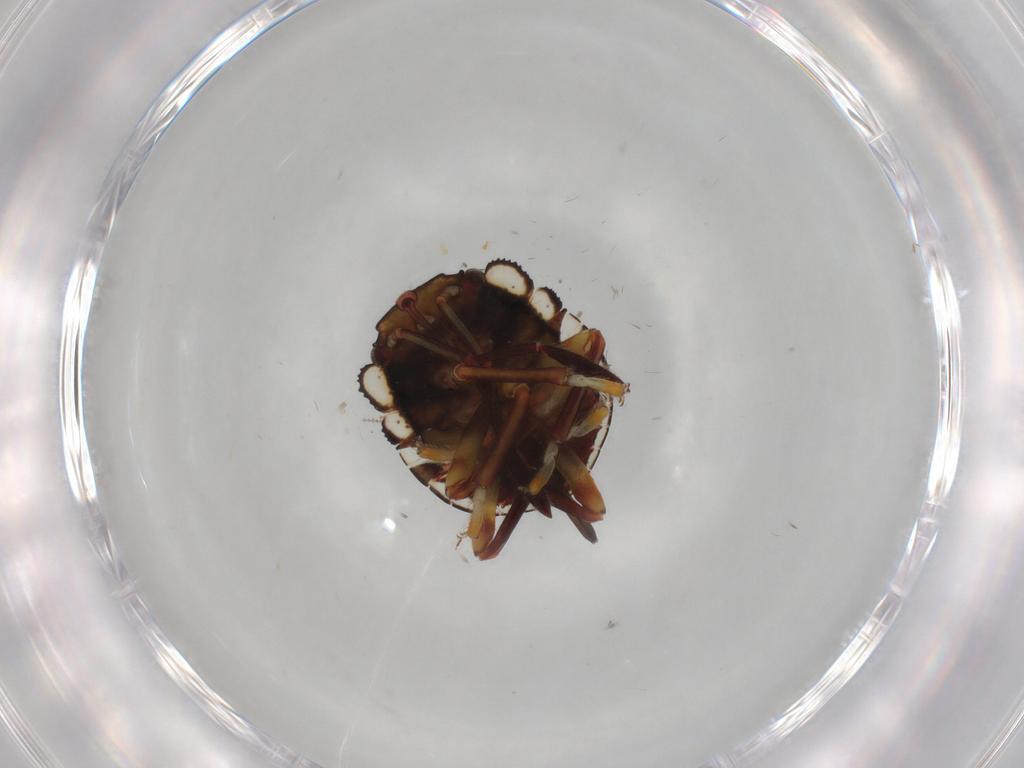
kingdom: Animalia
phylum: Arthropoda
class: Insecta
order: Hemiptera
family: Pentatomidae
